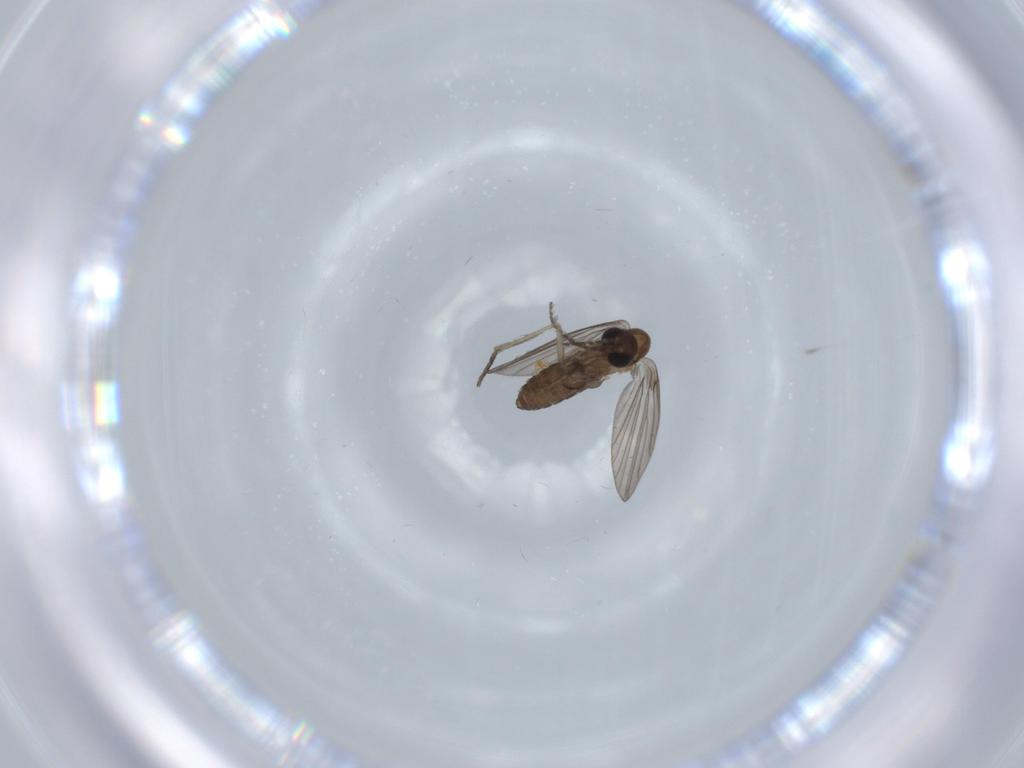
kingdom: Animalia
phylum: Arthropoda
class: Insecta
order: Diptera
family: Psychodidae
